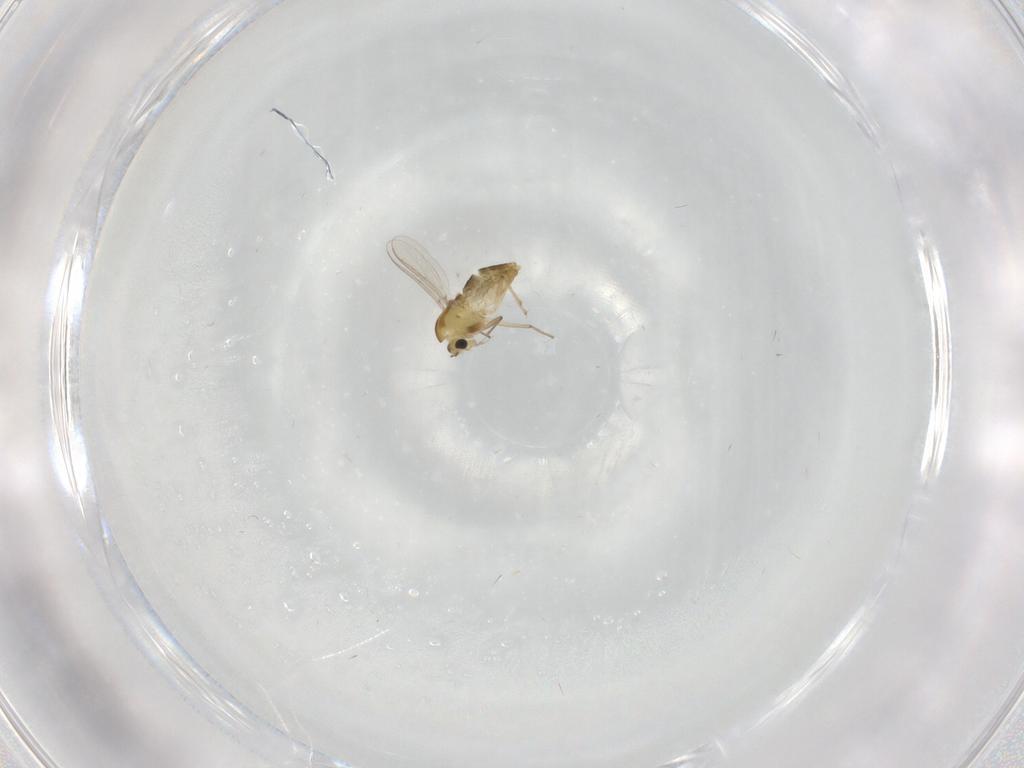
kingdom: Animalia
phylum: Arthropoda
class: Insecta
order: Diptera
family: Chironomidae
